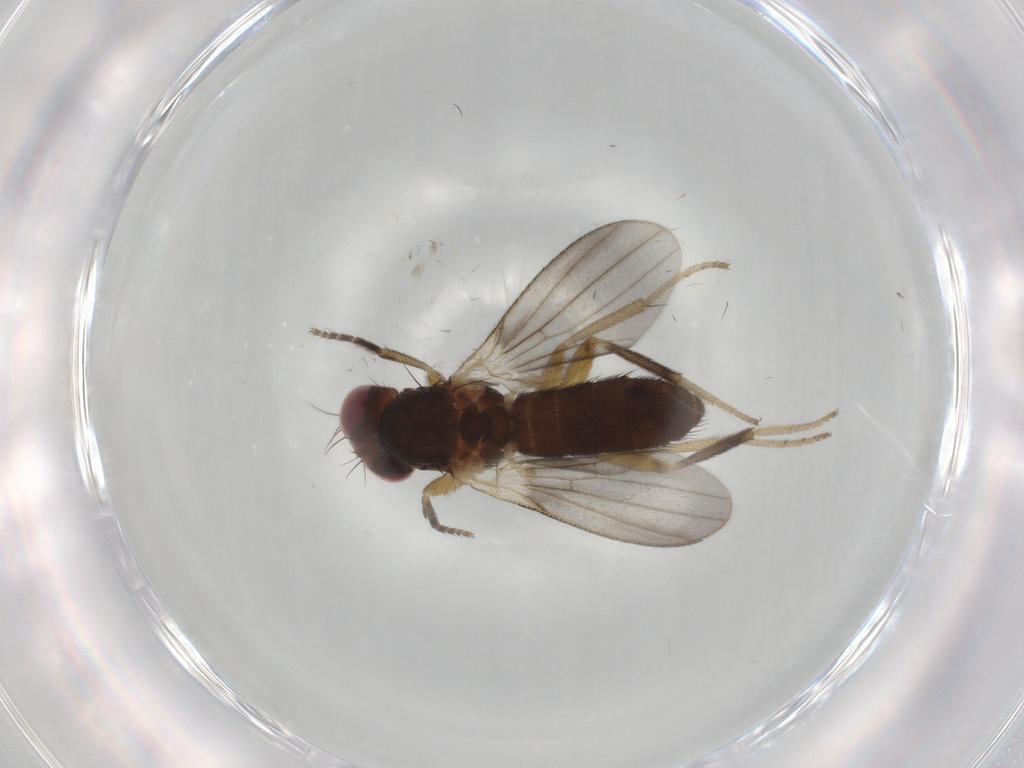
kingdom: Animalia
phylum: Arthropoda
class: Insecta
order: Diptera
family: Clusiidae
